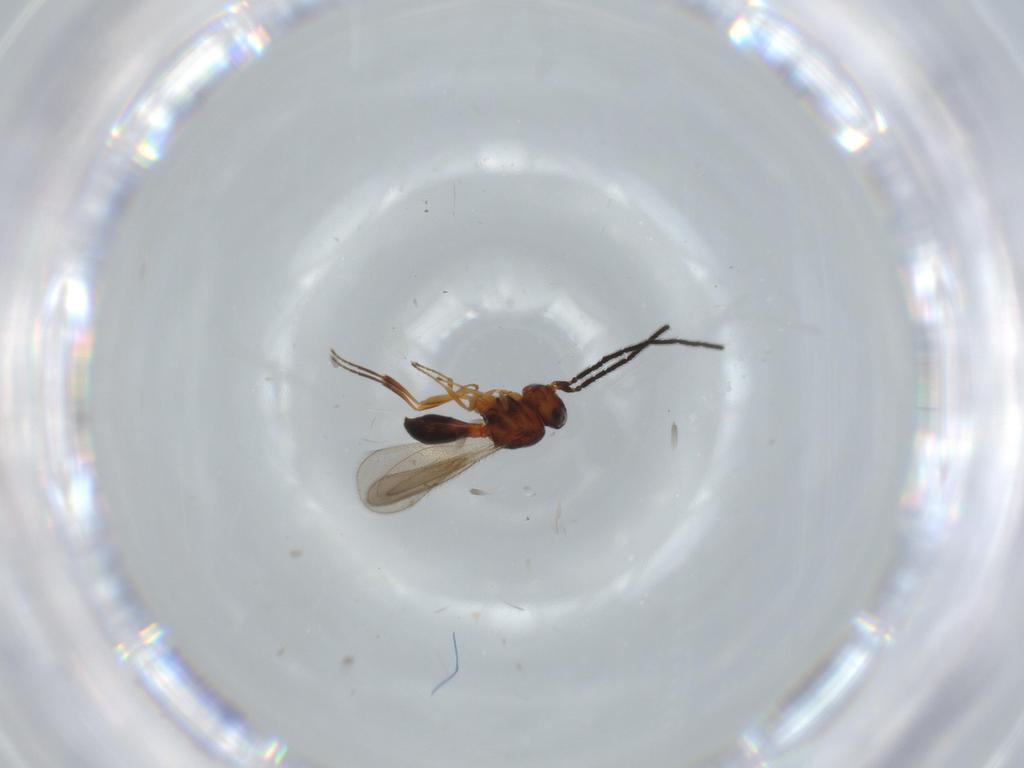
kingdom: Animalia
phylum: Arthropoda
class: Insecta
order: Hymenoptera
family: Scelionidae
